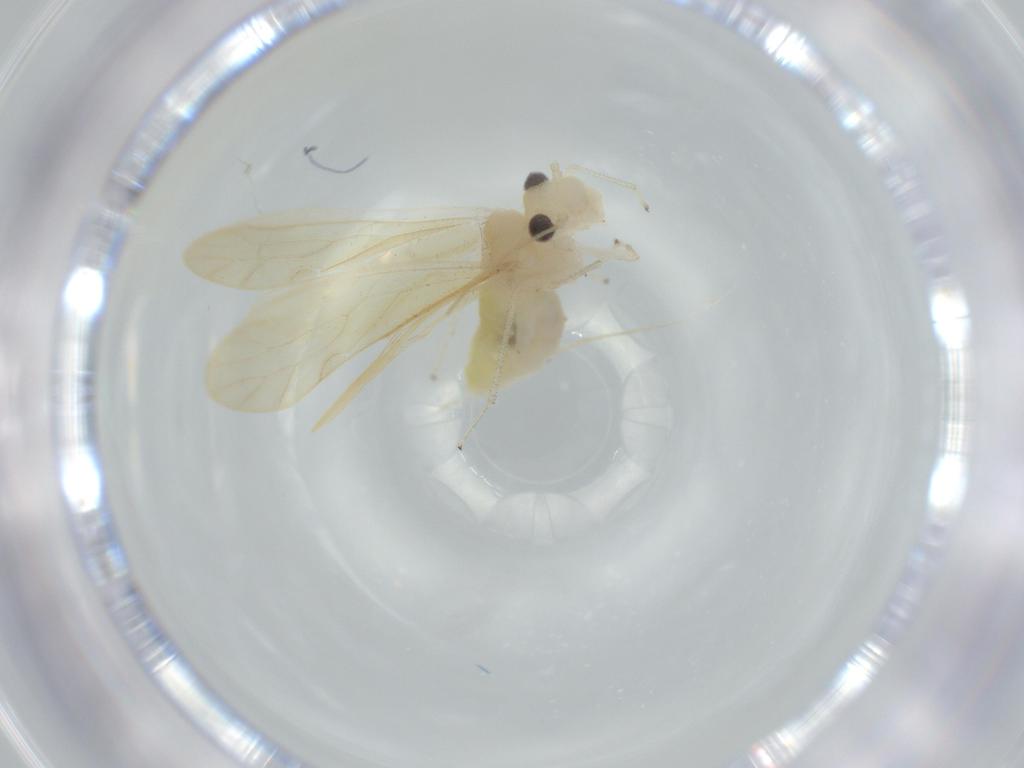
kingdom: Animalia
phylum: Arthropoda
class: Insecta
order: Psocodea
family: Caeciliusidae
